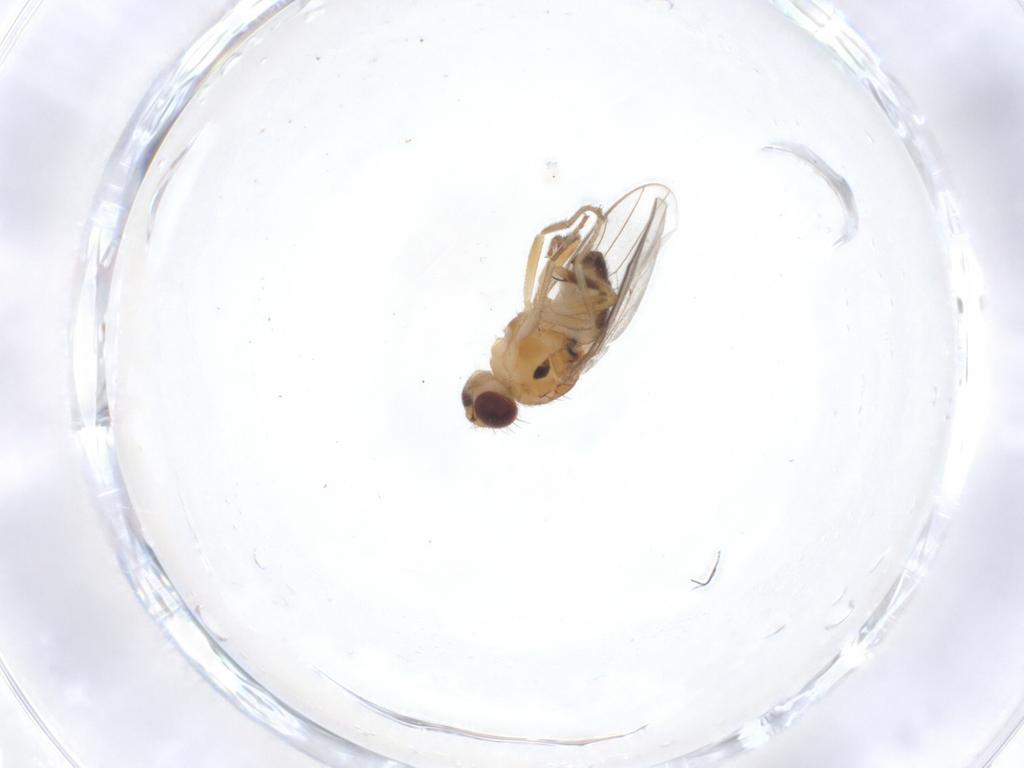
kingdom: Animalia
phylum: Arthropoda
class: Insecta
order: Diptera
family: Chloropidae
